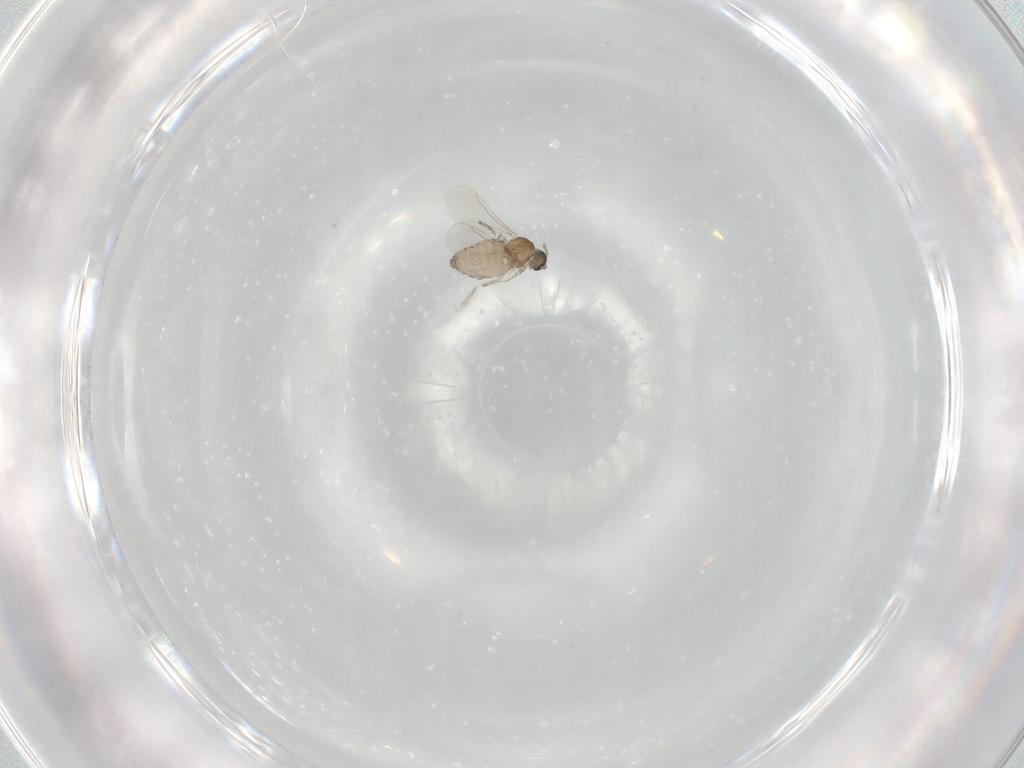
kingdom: Animalia
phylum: Arthropoda
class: Insecta
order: Diptera
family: Cecidomyiidae
